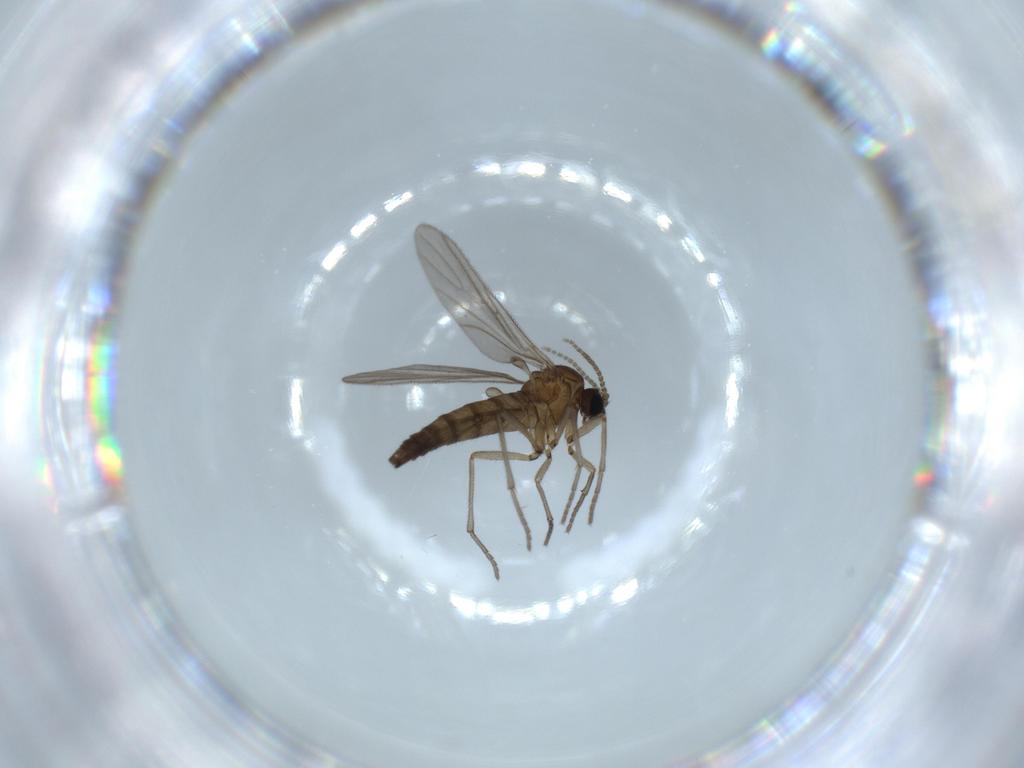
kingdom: Animalia
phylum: Arthropoda
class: Insecta
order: Diptera
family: Sciaridae
